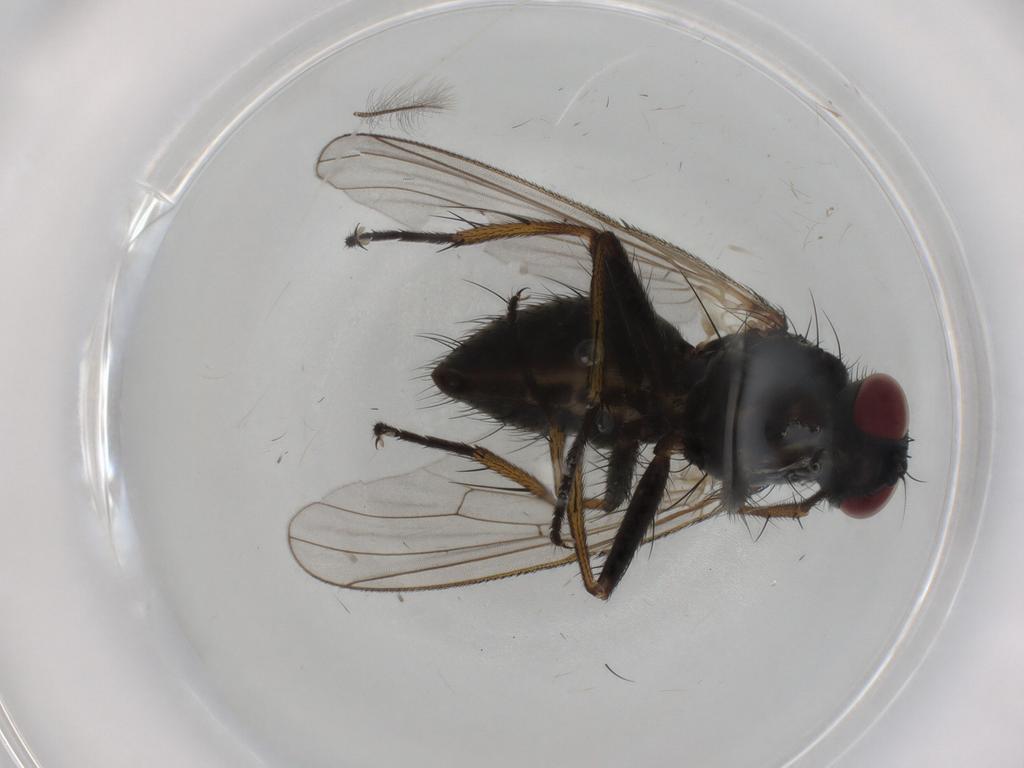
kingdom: Animalia
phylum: Arthropoda
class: Insecta
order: Diptera
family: Sphaeroceridae
